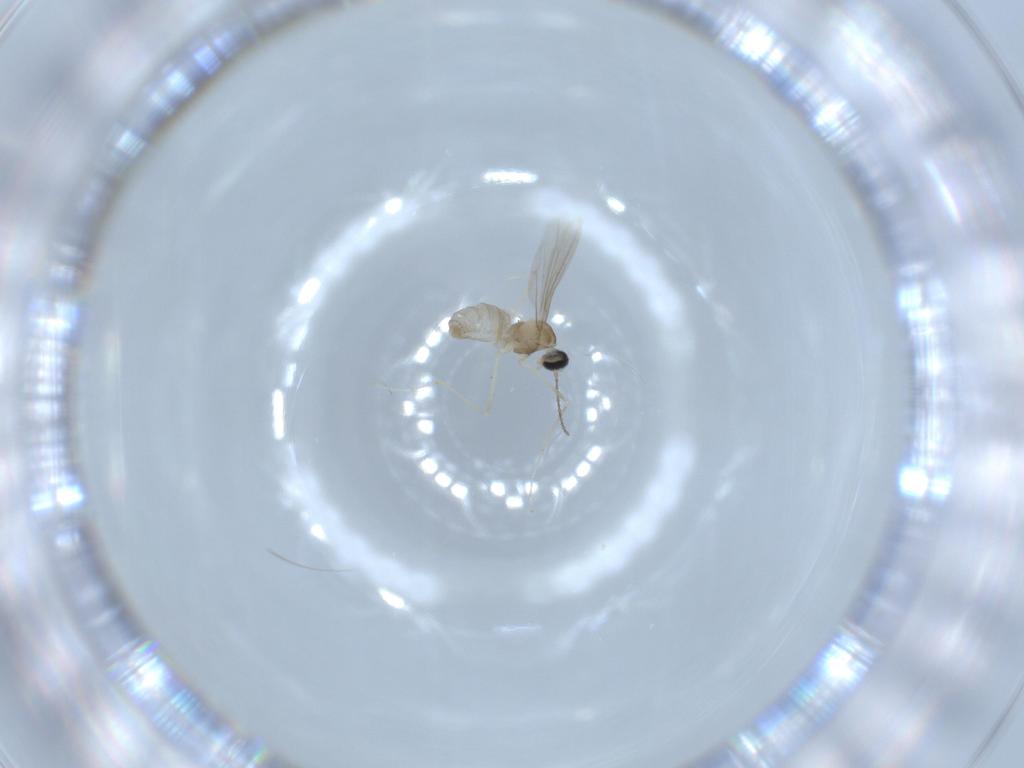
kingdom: Animalia
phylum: Arthropoda
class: Insecta
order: Diptera
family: Cecidomyiidae
